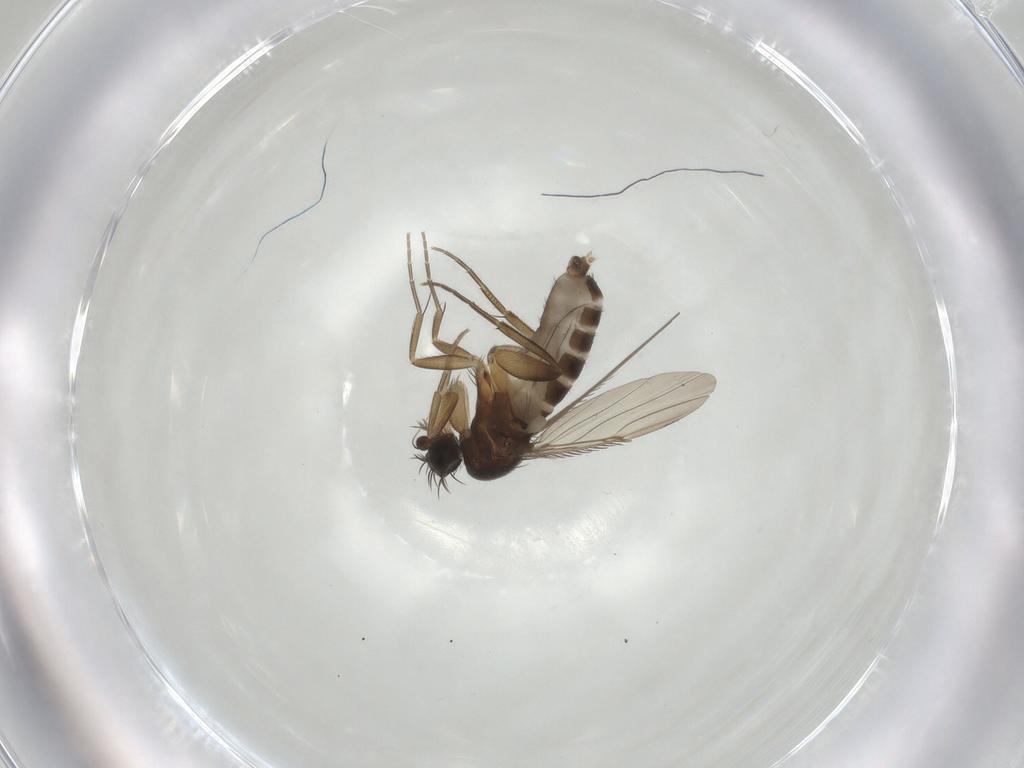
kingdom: Animalia
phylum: Arthropoda
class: Insecta
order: Diptera
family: Phoridae
